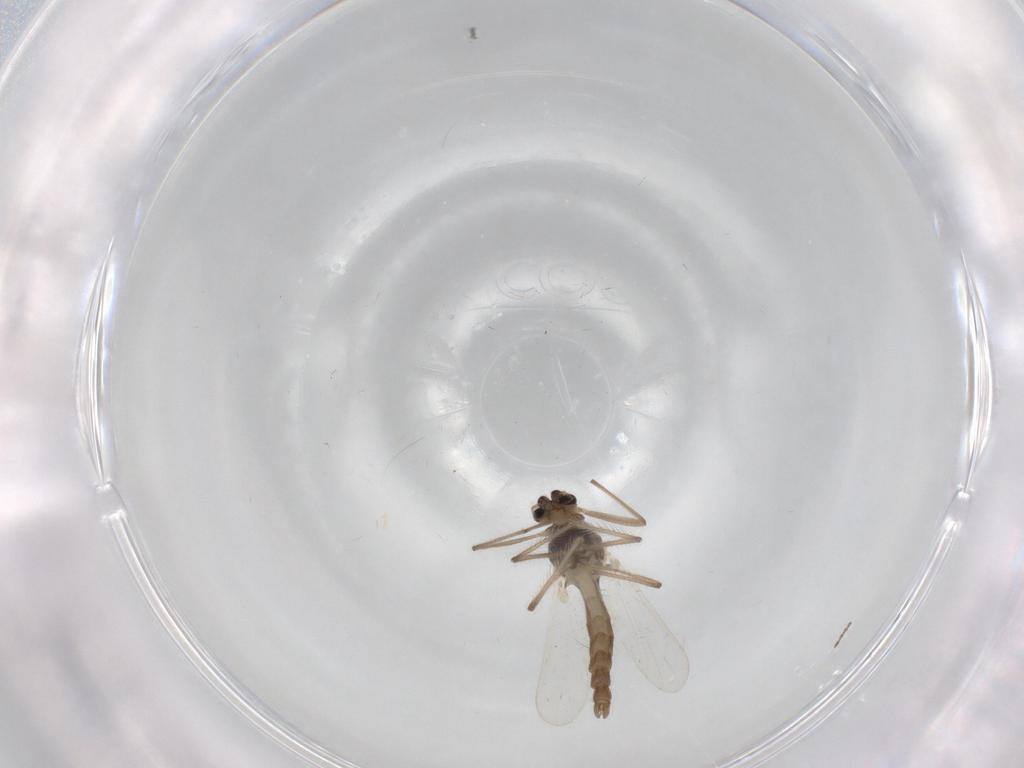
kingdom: Animalia
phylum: Arthropoda
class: Insecta
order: Diptera
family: Chironomidae
